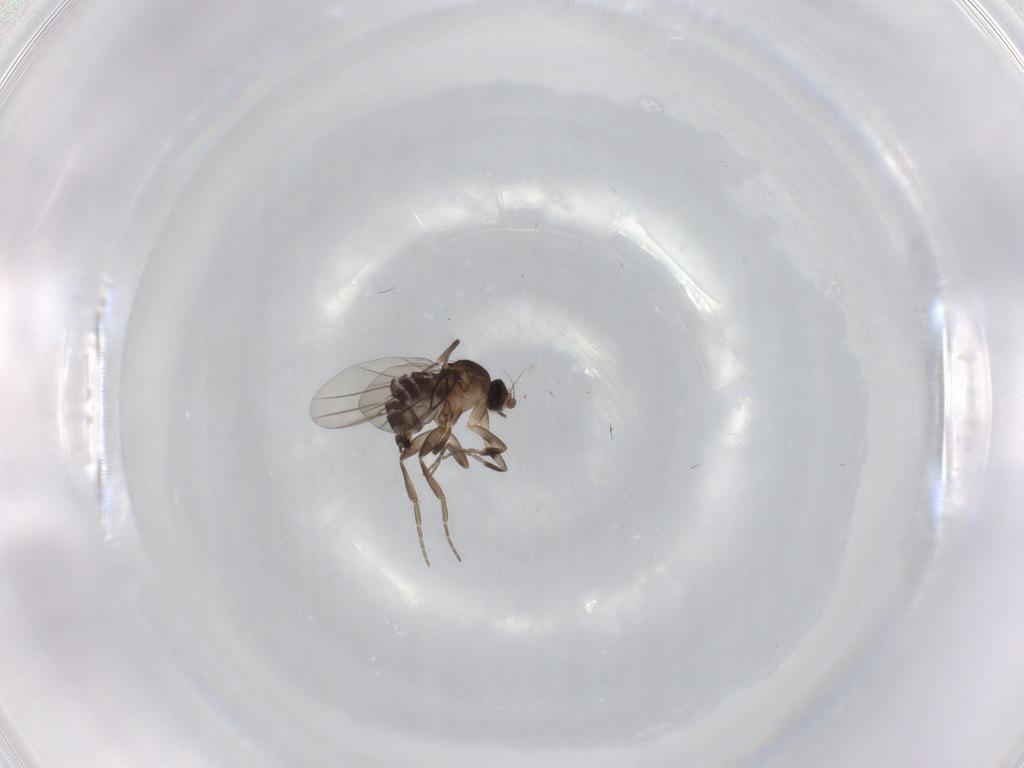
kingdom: Animalia
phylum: Arthropoda
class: Insecta
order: Diptera
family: Phoridae
